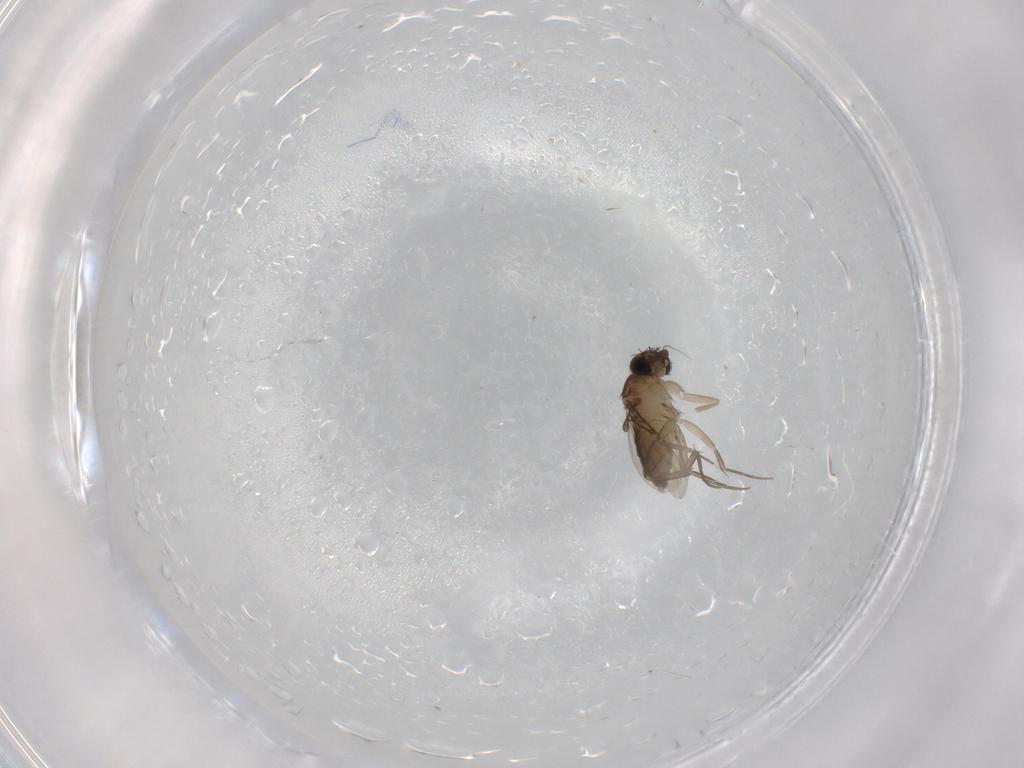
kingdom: Animalia
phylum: Arthropoda
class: Insecta
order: Diptera
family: Phoridae
